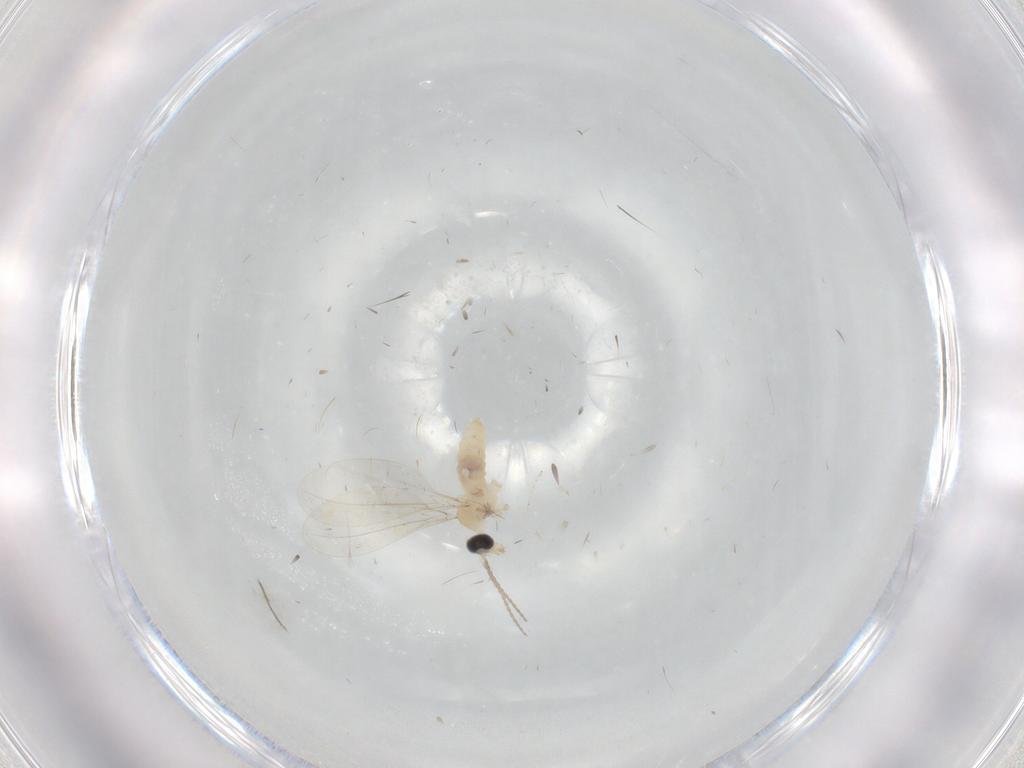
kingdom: Animalia
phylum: Arthropoda
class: Insecta
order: Diptera
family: Cecidomyiidae
